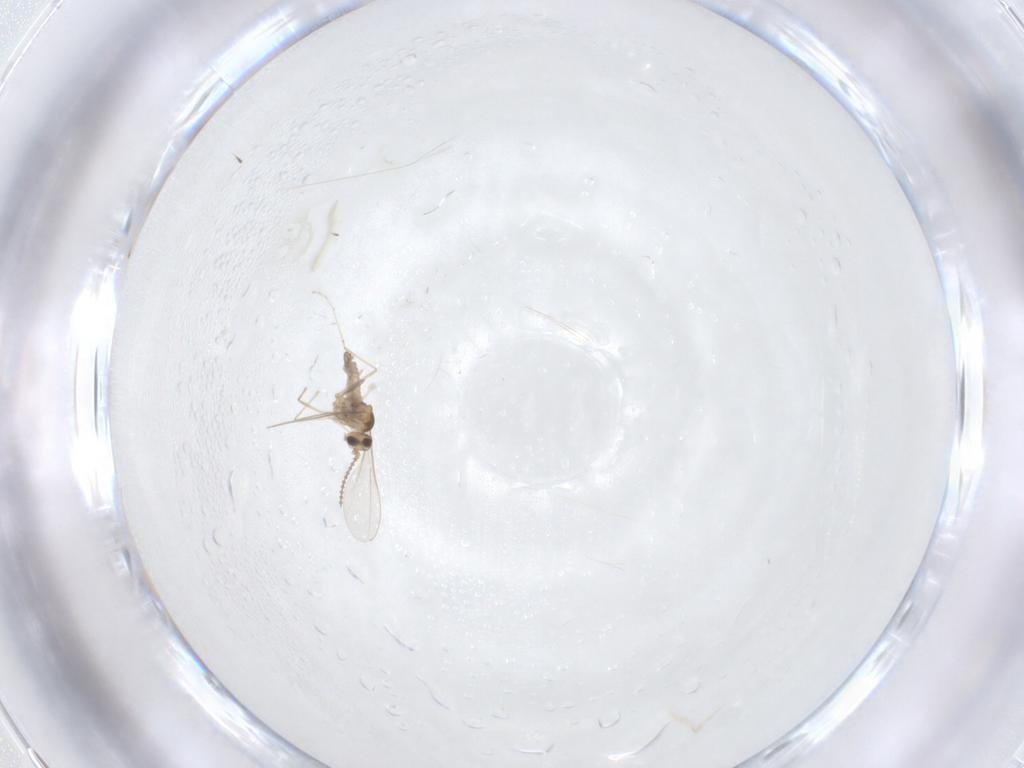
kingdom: Animalia
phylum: Arthropoda
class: Insecta
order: Diptera
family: Cecidomyiidae
